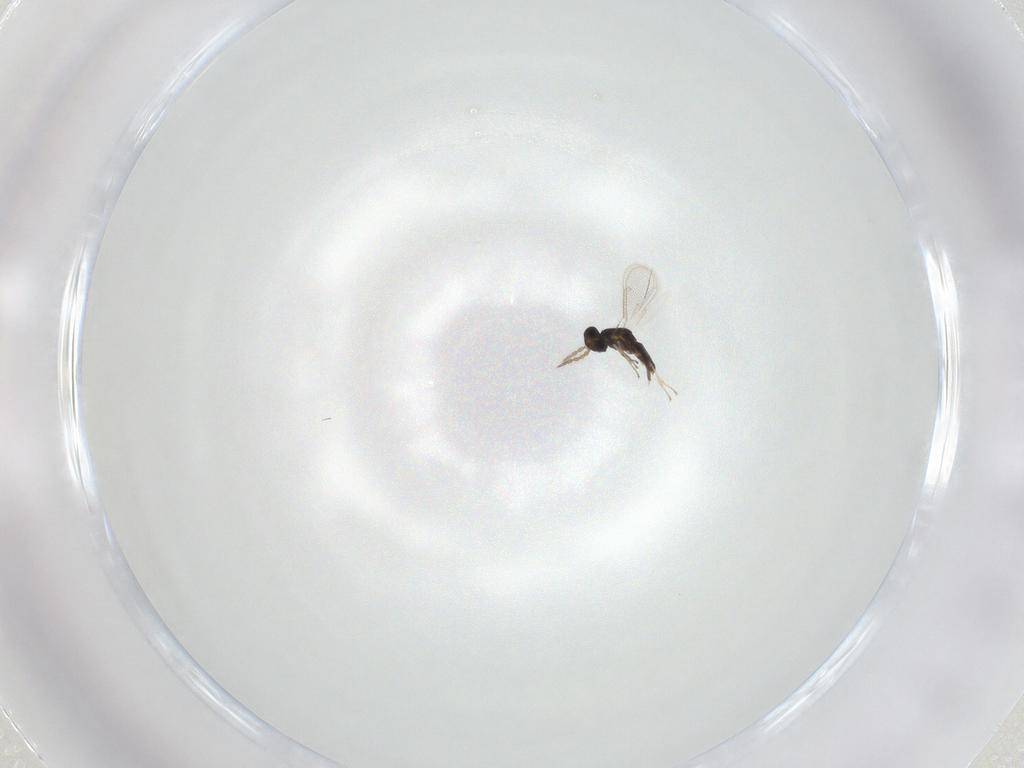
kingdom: Animalia
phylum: Arthropoda
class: Insecta
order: Hymenoptera
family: Eulophidae
